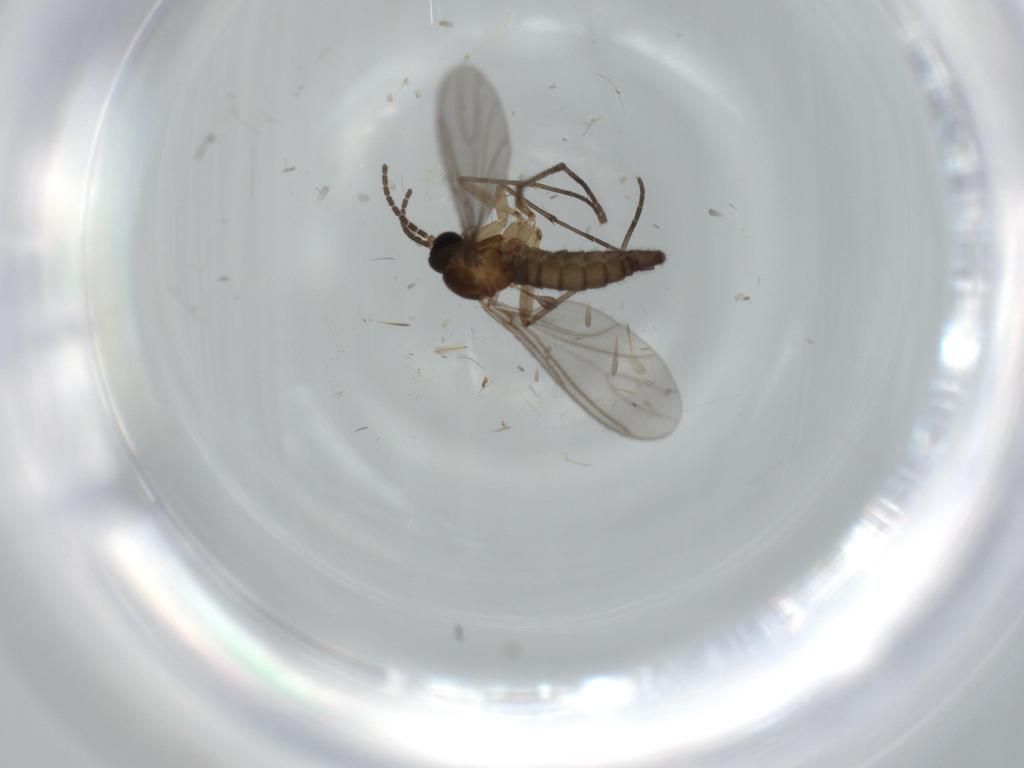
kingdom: Animalia
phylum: Arthropoda
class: Insecta
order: Diptera
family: Sciaridae
